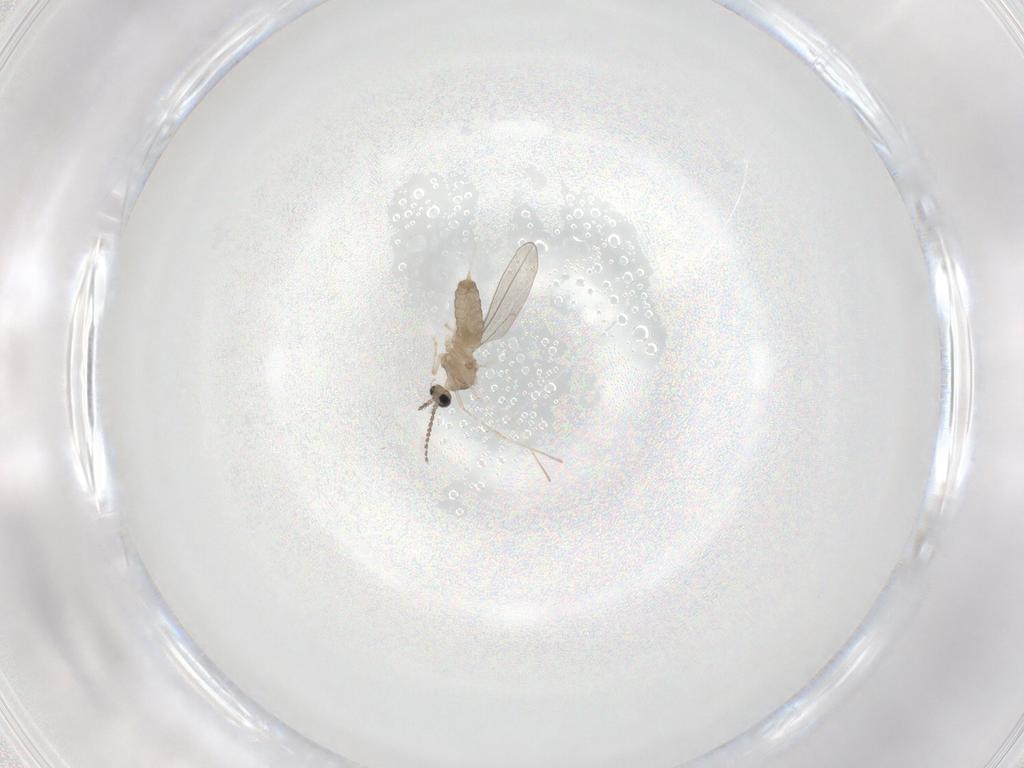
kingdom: Animalia
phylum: Arthropoda
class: Insecta
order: Diptera
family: Cecidomyiidae
